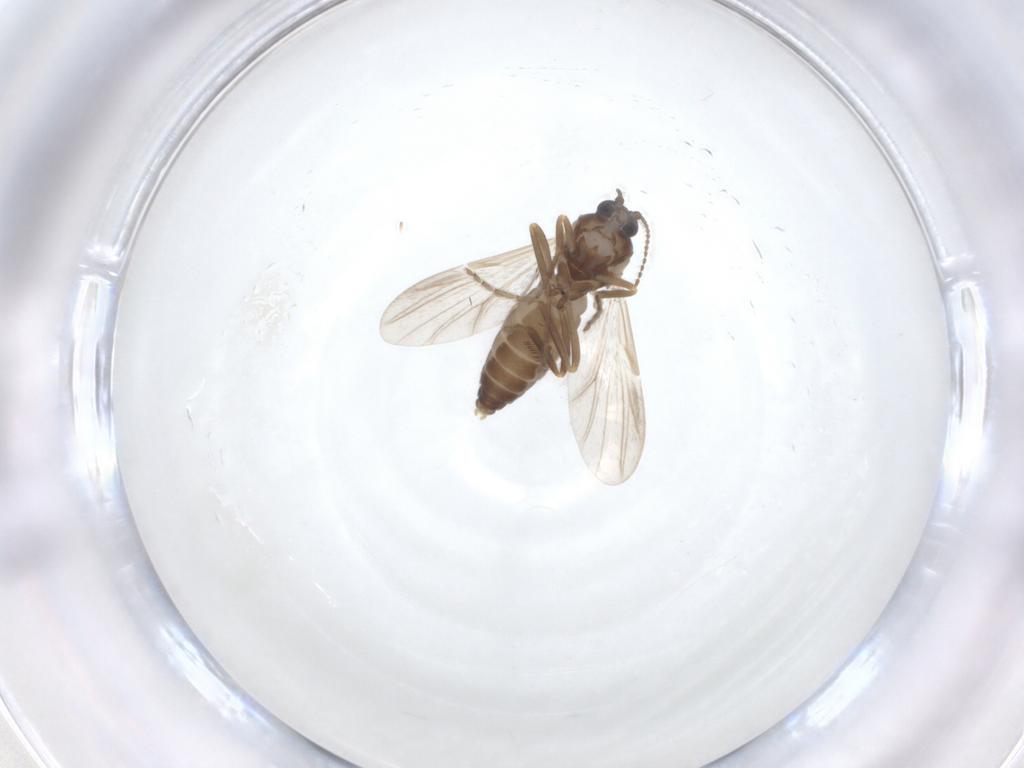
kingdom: Animalia
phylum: Arthropoda
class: Insecta
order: Diptera
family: Ceratopogonidae
